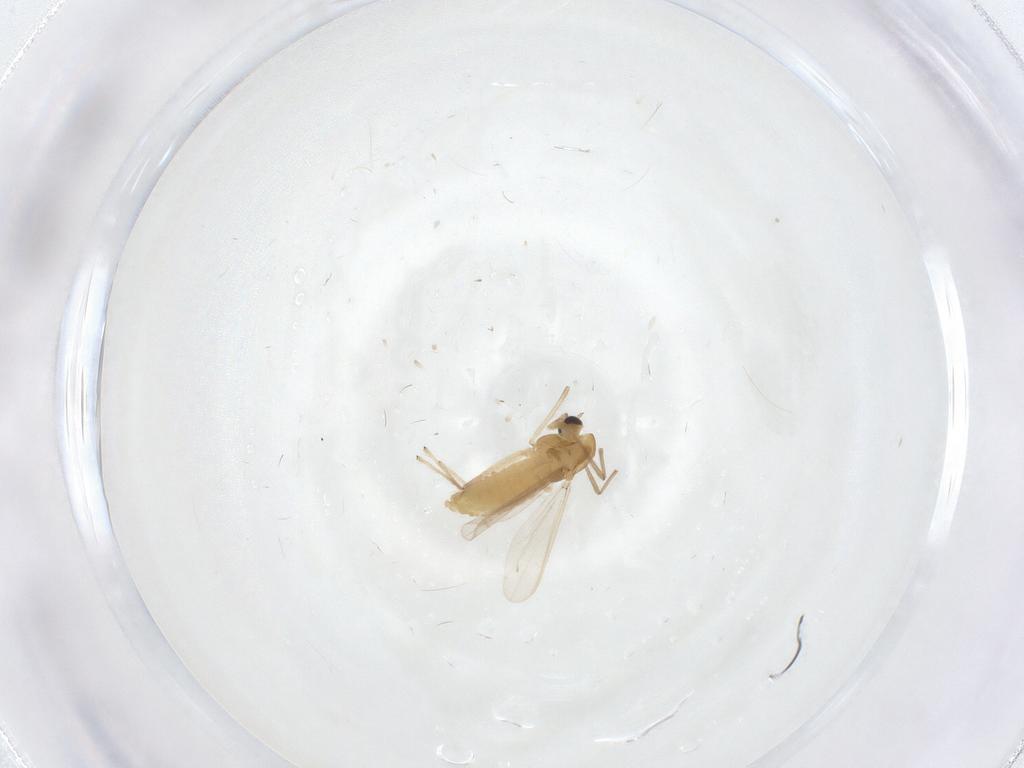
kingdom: Animalia
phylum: Arthropoda
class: Insecta
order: Diptera
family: Chironomidae
